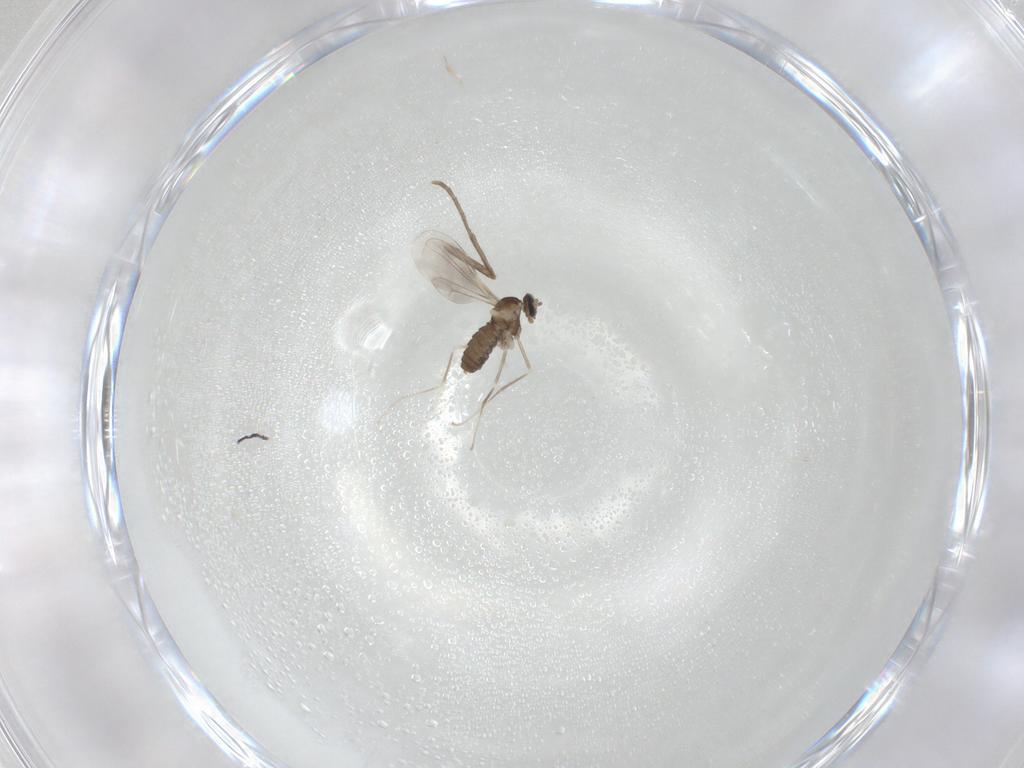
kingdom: Animalia
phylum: Arthropoda
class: Insecta
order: Diptera
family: Cecidomyiidae
